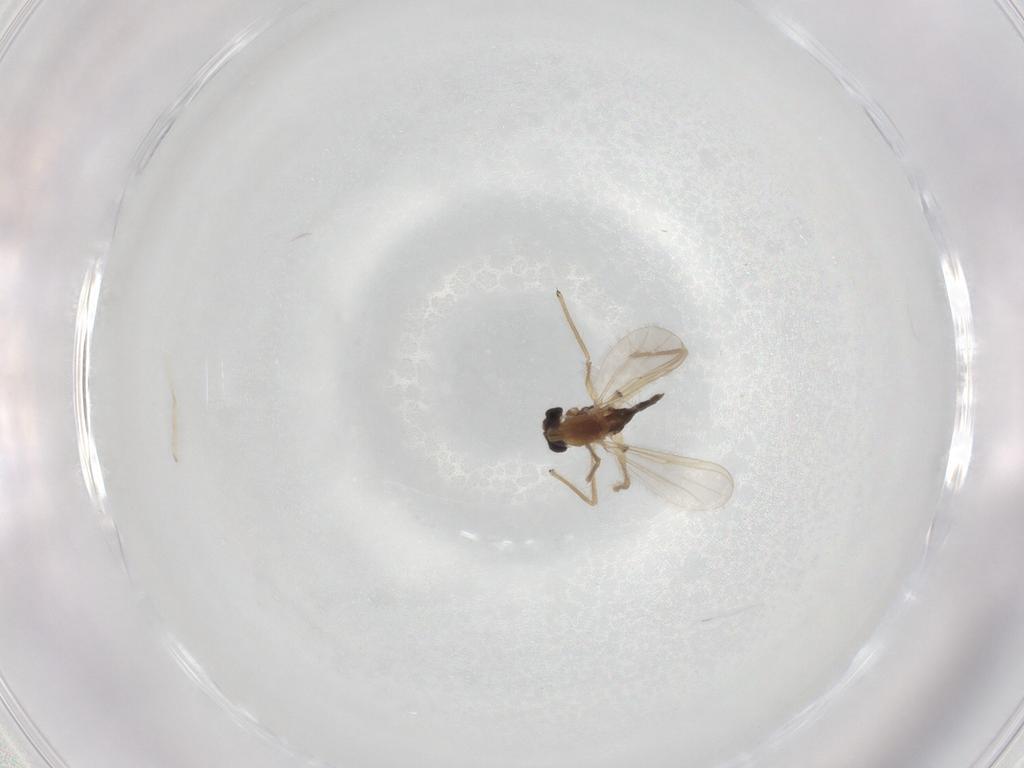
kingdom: Animalia
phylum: Arthropoda
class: Insecta
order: Diptera
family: Chironomidae
